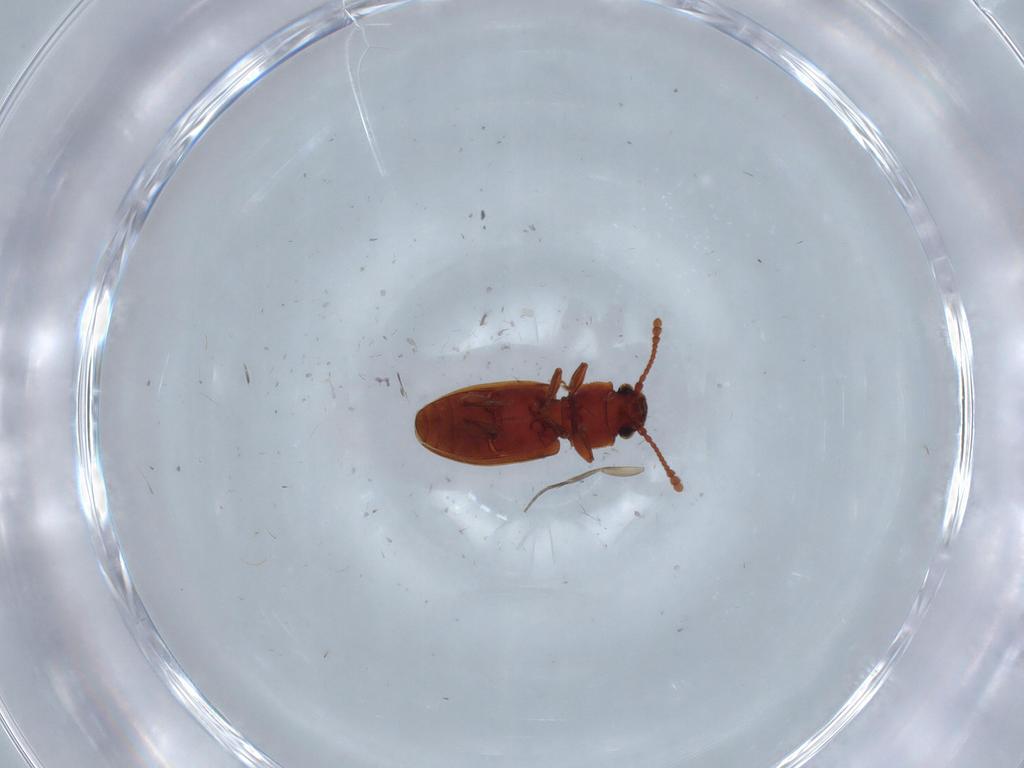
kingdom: Animalia
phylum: Arthropoda
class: Insecta
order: Coleoptera
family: Silvanidae
